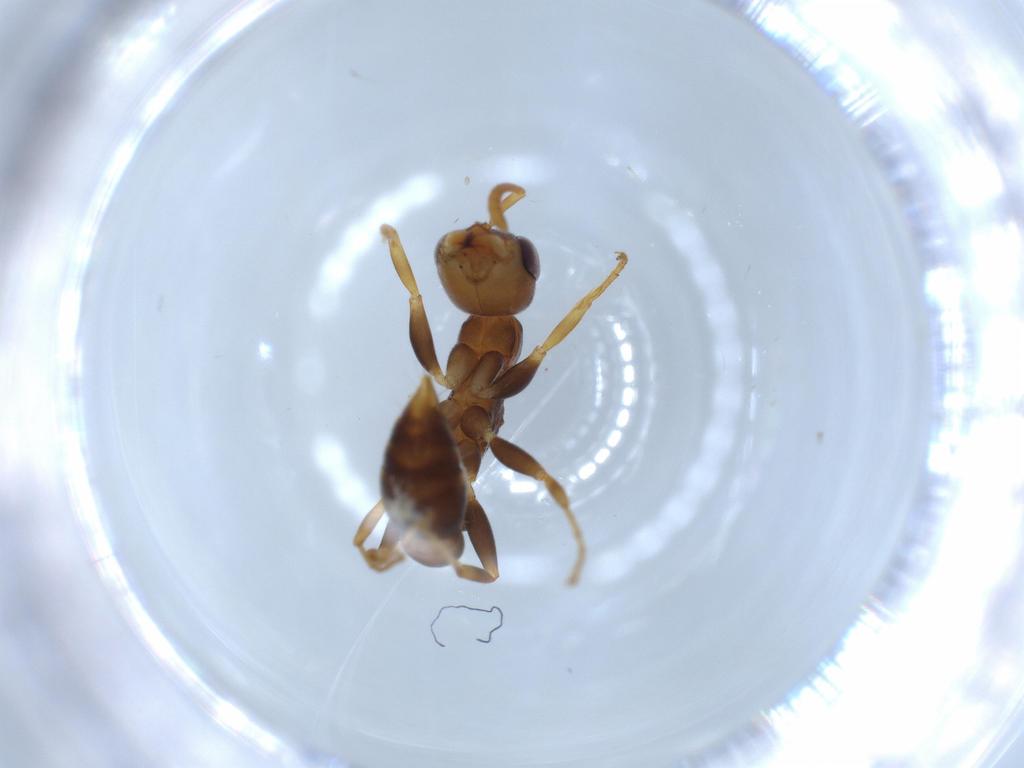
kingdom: Animalia
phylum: Arthropoda
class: Insecta
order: Hymenoptera
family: Formicidae
